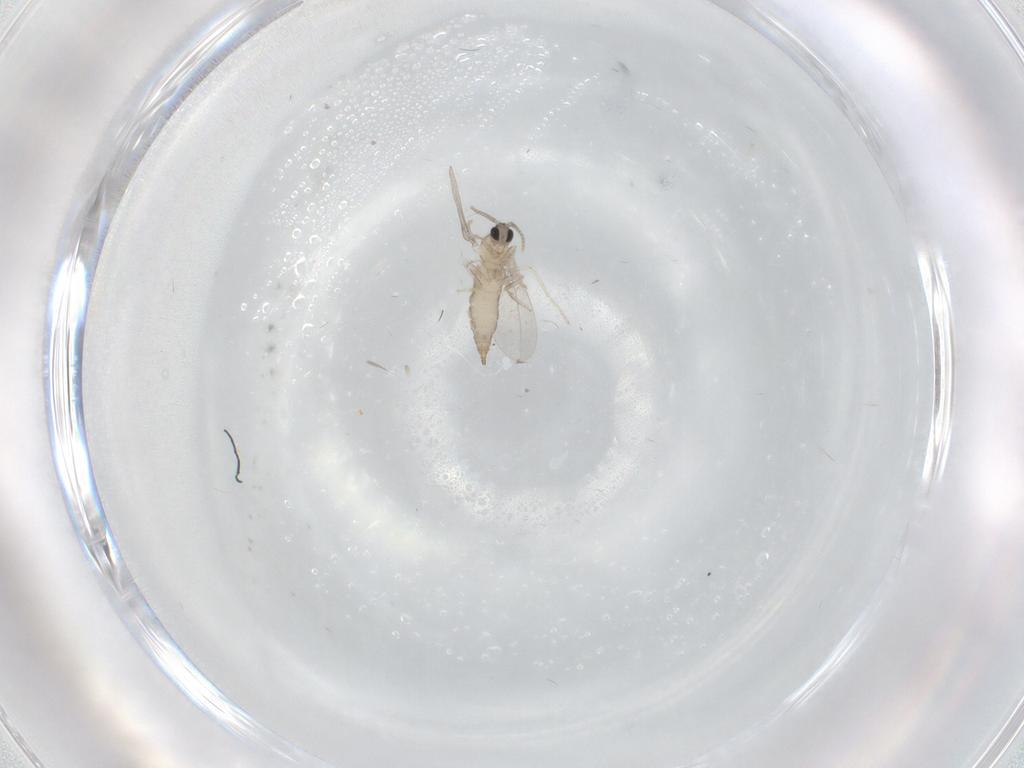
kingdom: Animalia
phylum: Arthropoda
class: Insecta
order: Diptera
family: Cecidomyiidae
